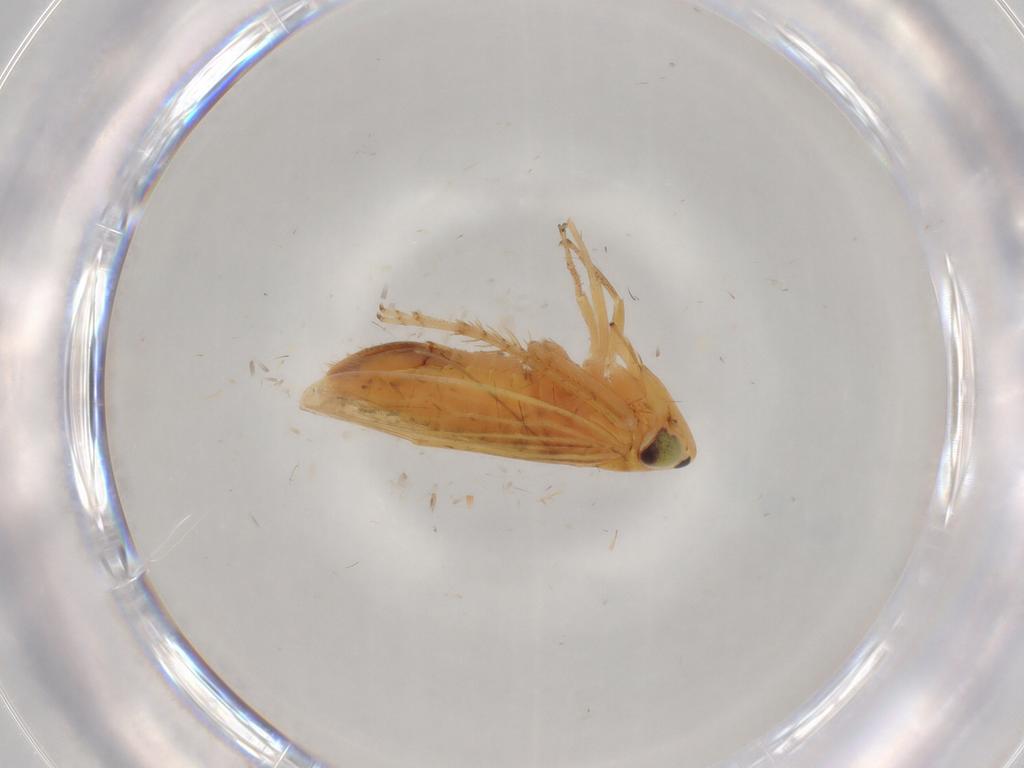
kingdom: Animalia
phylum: Arthropoda
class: Insecta
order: Hemiptera
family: Cicadellidae
